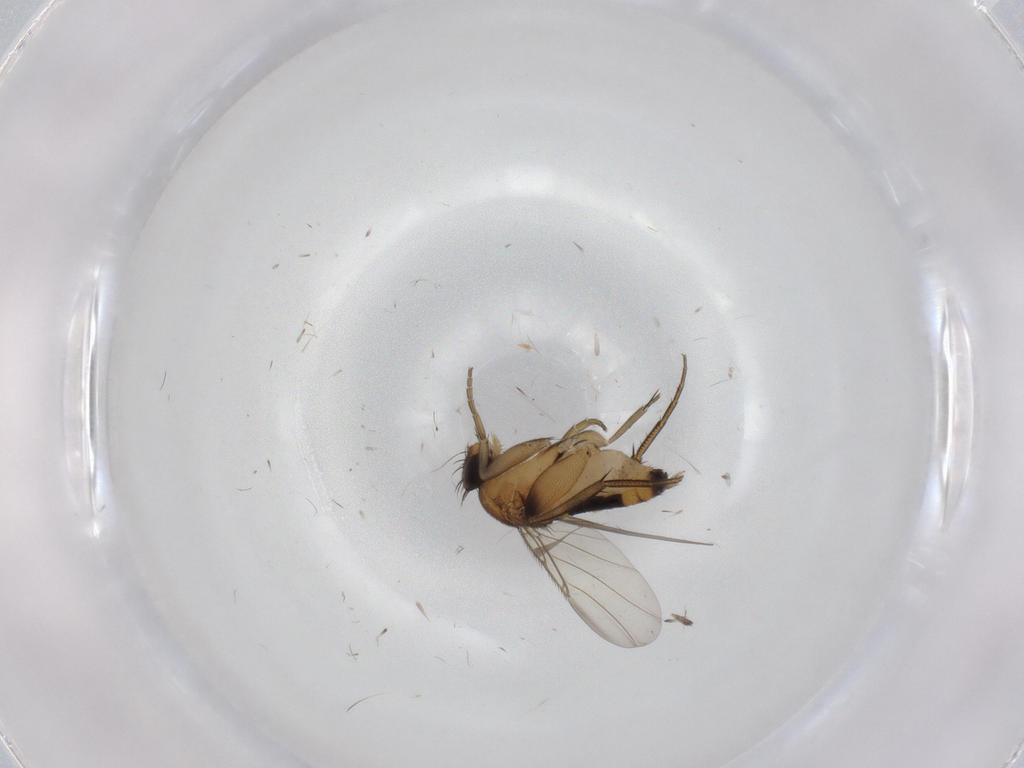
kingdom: Animalia
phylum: Arthropoda
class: Insecta
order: Diptera
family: Phoridae
